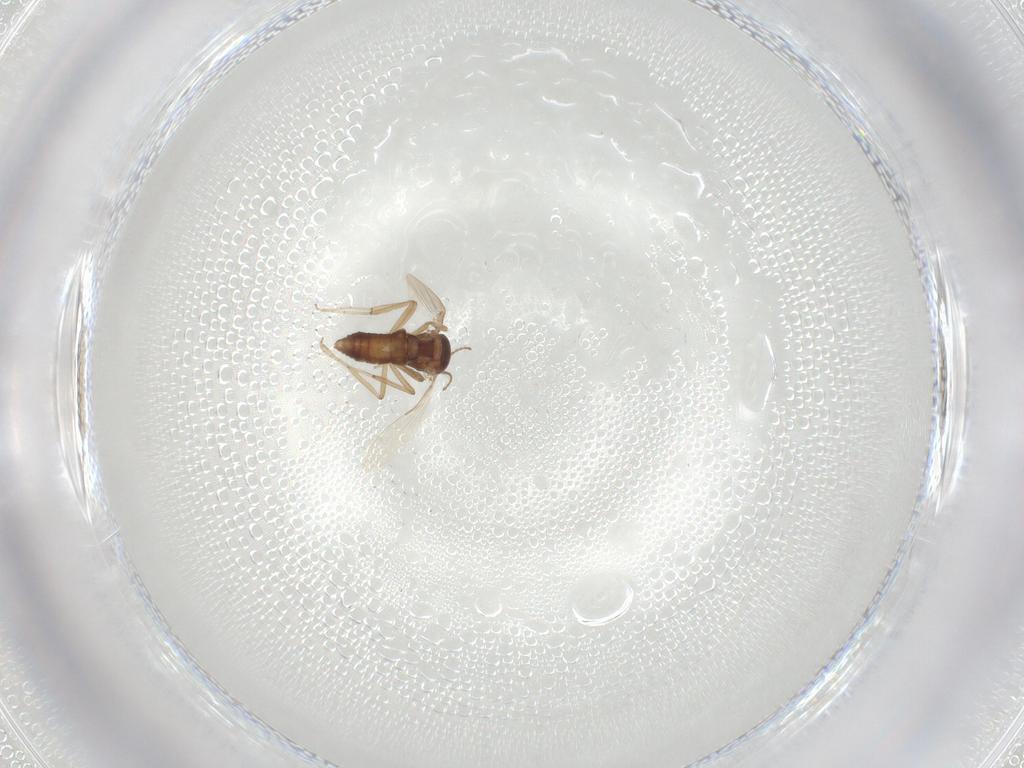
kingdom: Animalia
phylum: Arthropoda
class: Insecta
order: Diptera
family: Ceratopogonidae
